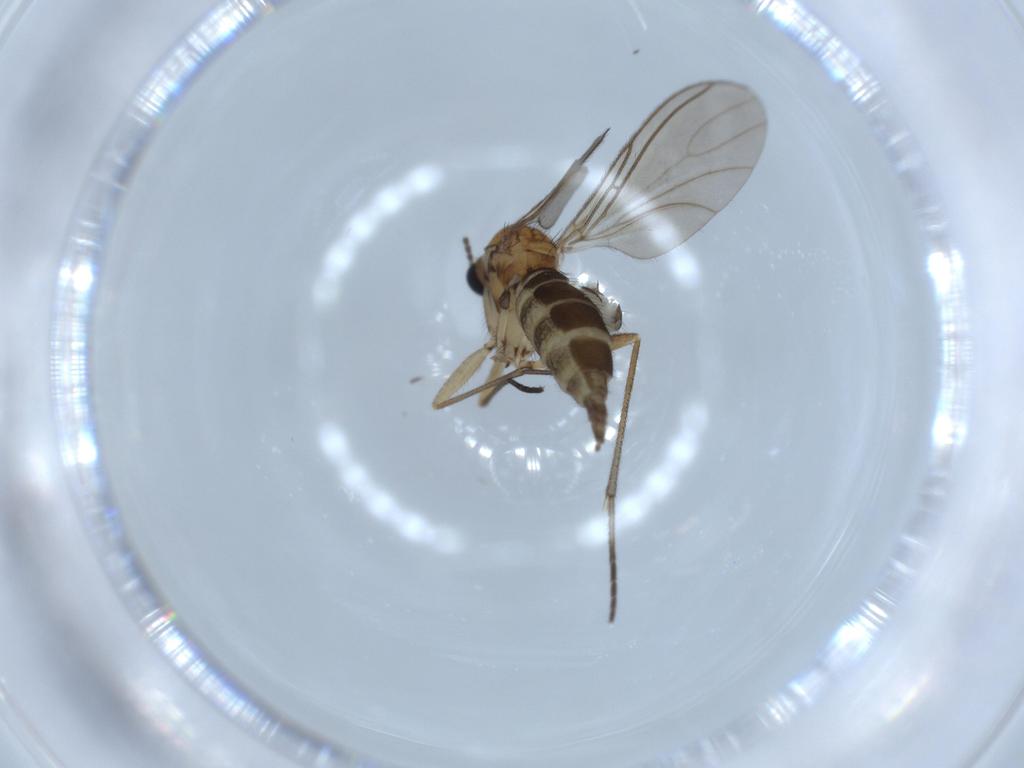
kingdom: Animalia
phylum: Arthropoda
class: Insecta
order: Diptera
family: Sciaridae
